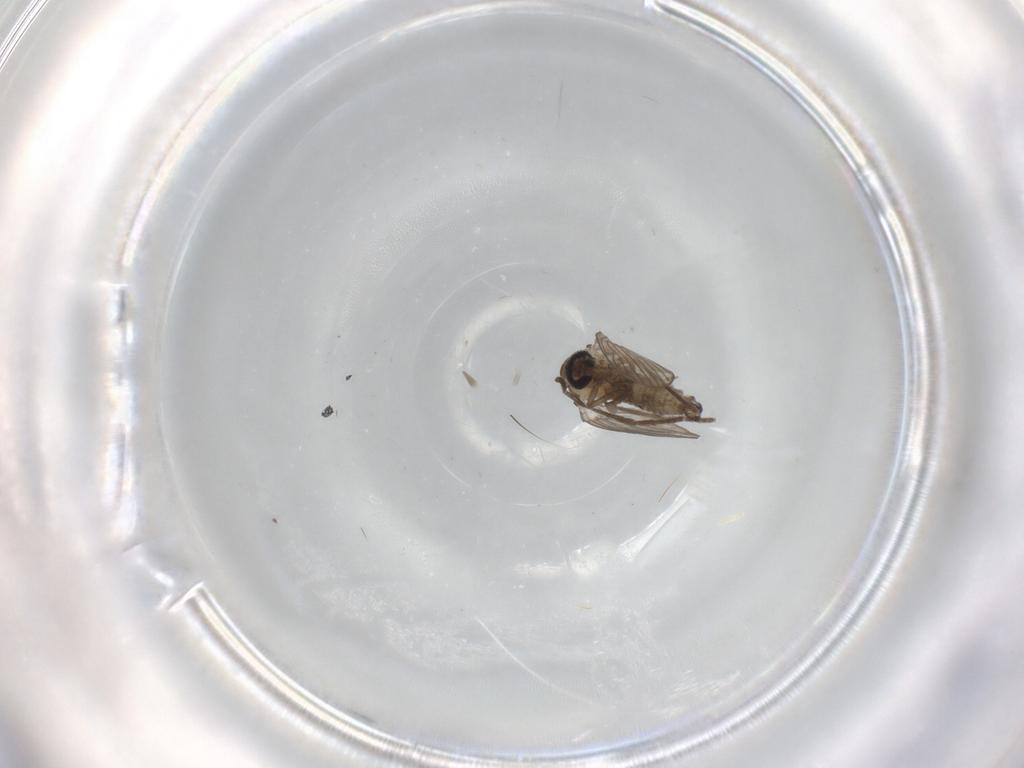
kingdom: Animalia
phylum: Arthropoda
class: Insecta
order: Diptera
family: Psychodidae
